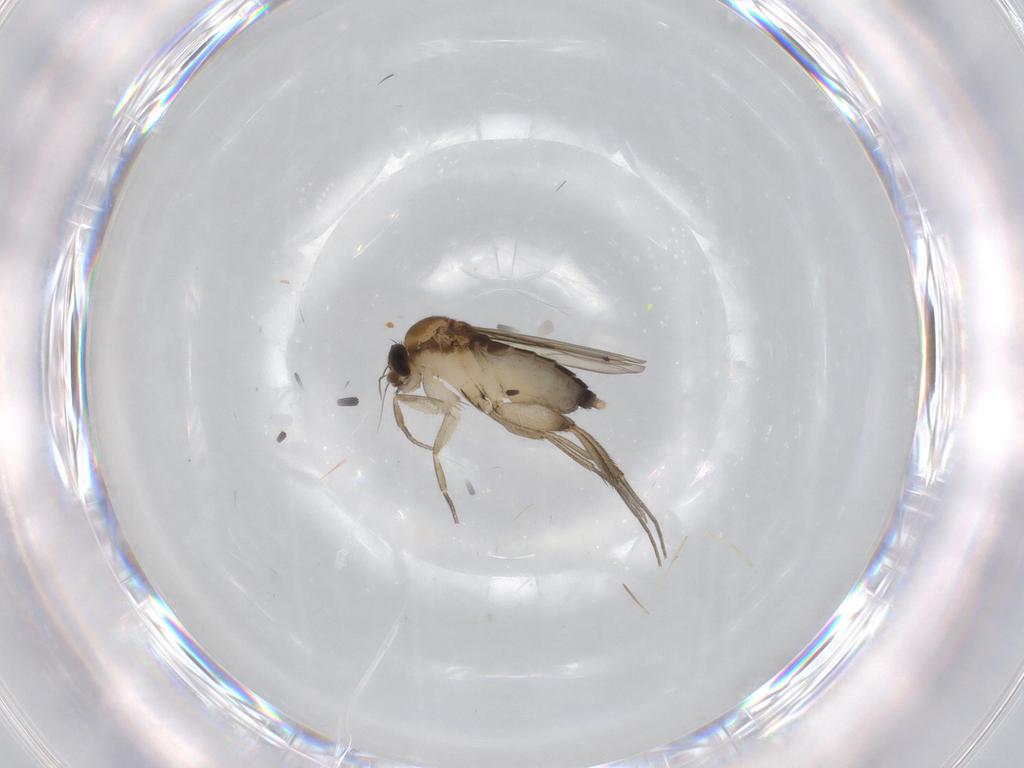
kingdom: Animalia
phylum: Arthropoda
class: Insecta
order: Diptera
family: Phoridae
